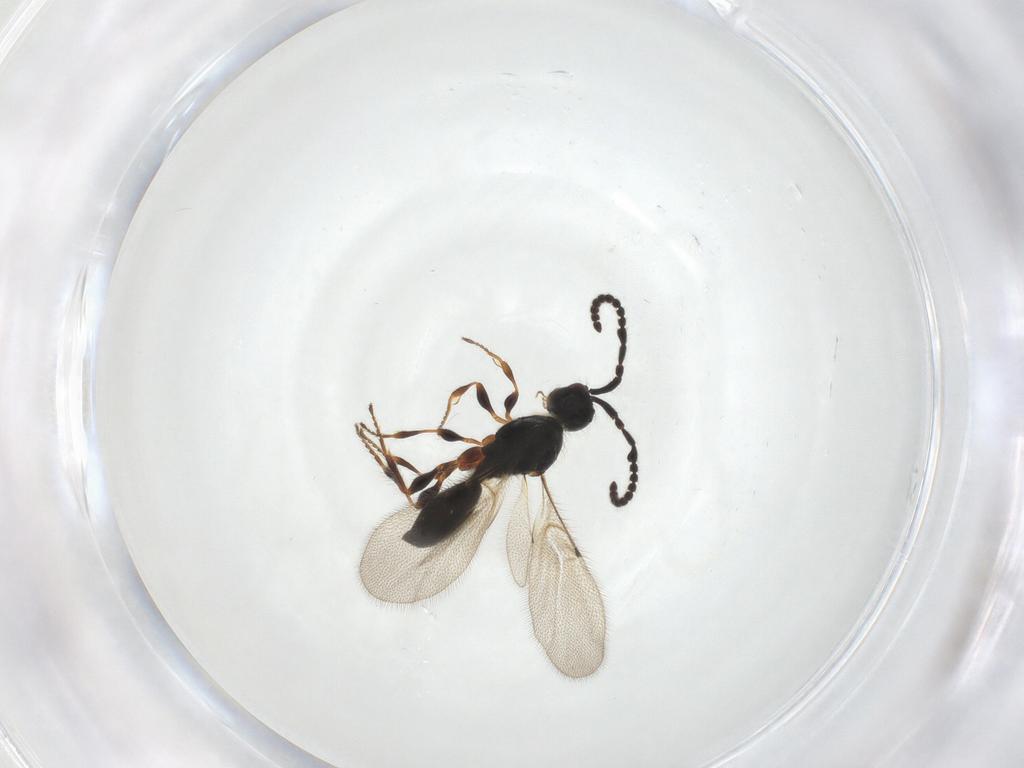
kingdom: Animalia
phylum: Arthropoda
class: Insecta
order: Hymenoptera
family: Diapriidae
